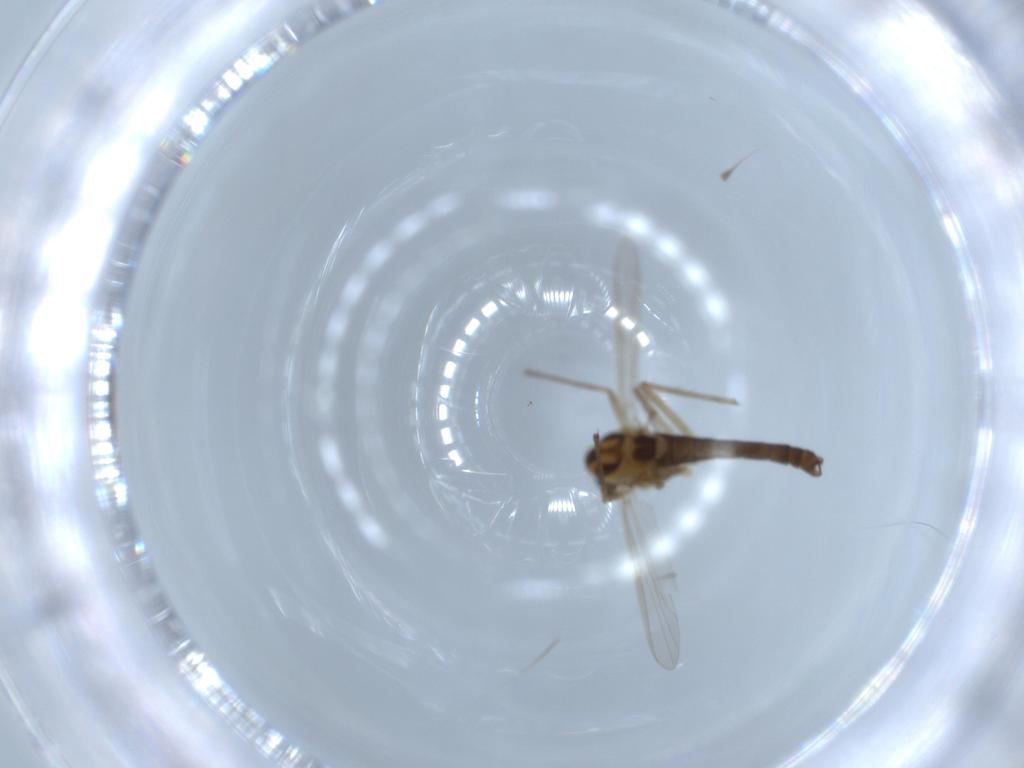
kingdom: Animalia
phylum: Arthropoda
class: Insecta
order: Diptera
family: Chironomidae
